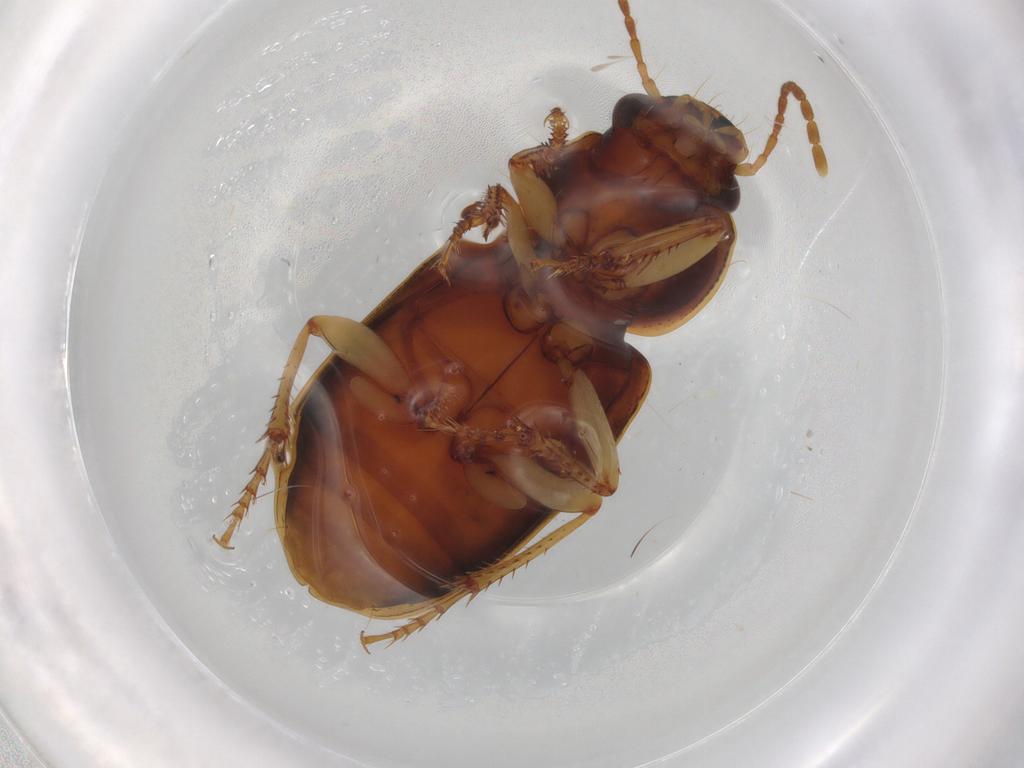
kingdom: Animalia
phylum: Arthropoda
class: Insecta
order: Coleoptera
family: Carabidae
